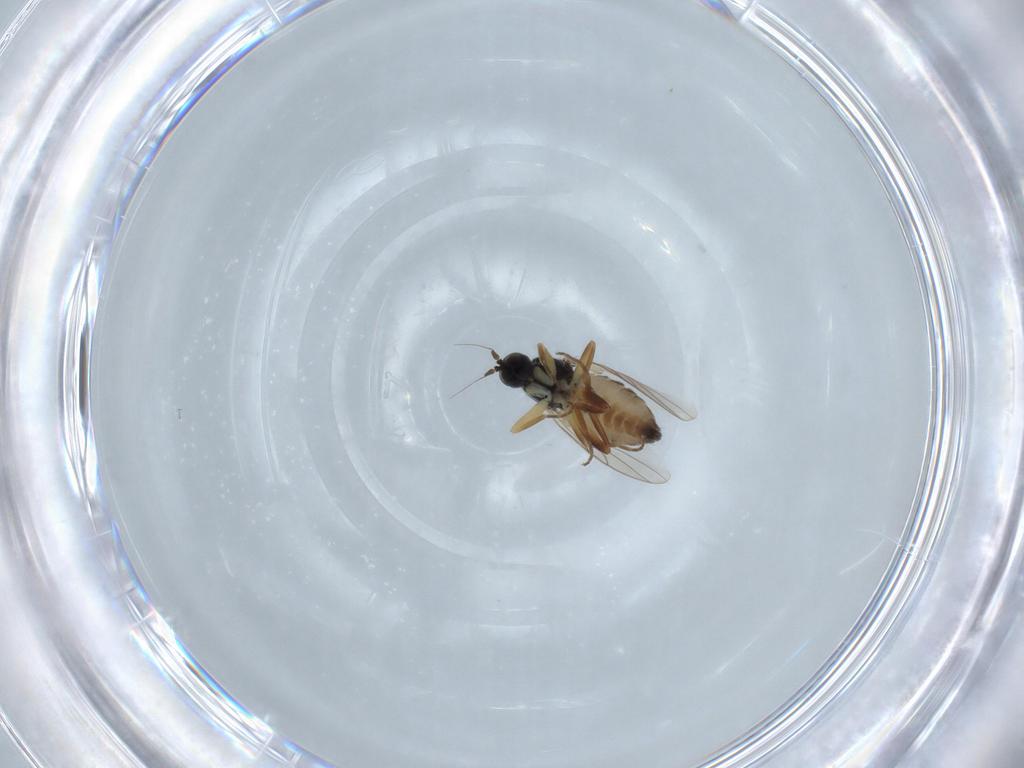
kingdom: Animalia
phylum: Arthropoda
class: Insecta
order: Diptera
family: Hybotidae
